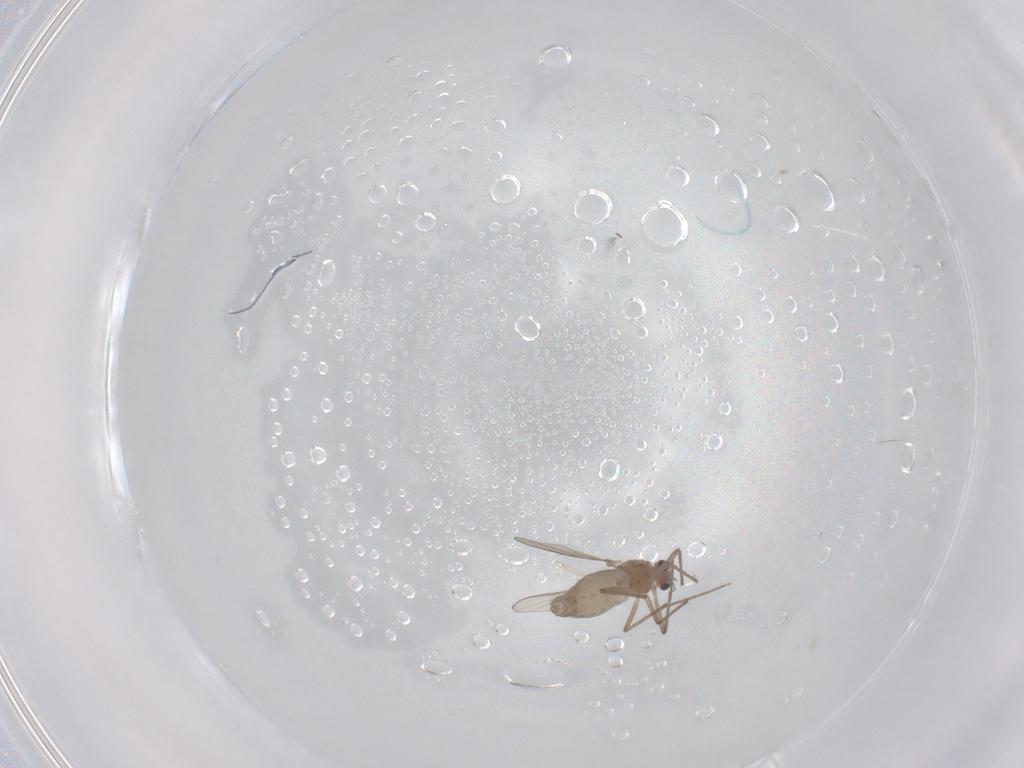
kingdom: Animalia
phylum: Arthropoda
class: Insecta
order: Diptera
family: Chironomidae
